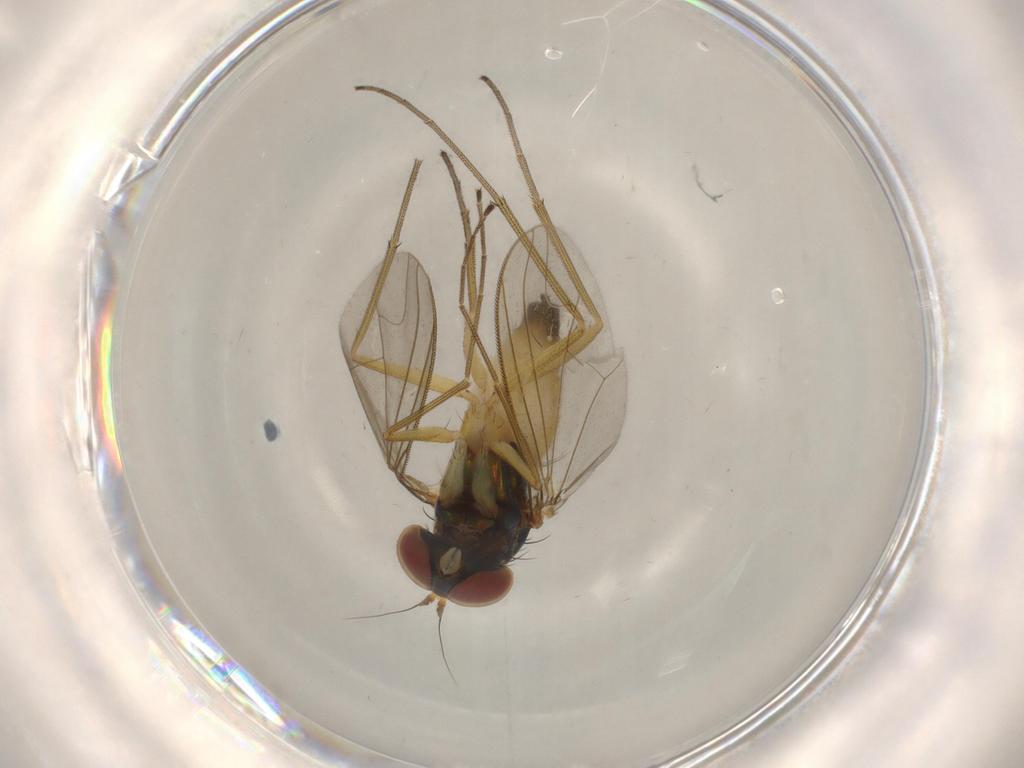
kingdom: Animalia
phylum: Arthropoda
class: Insecta
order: Diptera
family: Dolichopodidae
